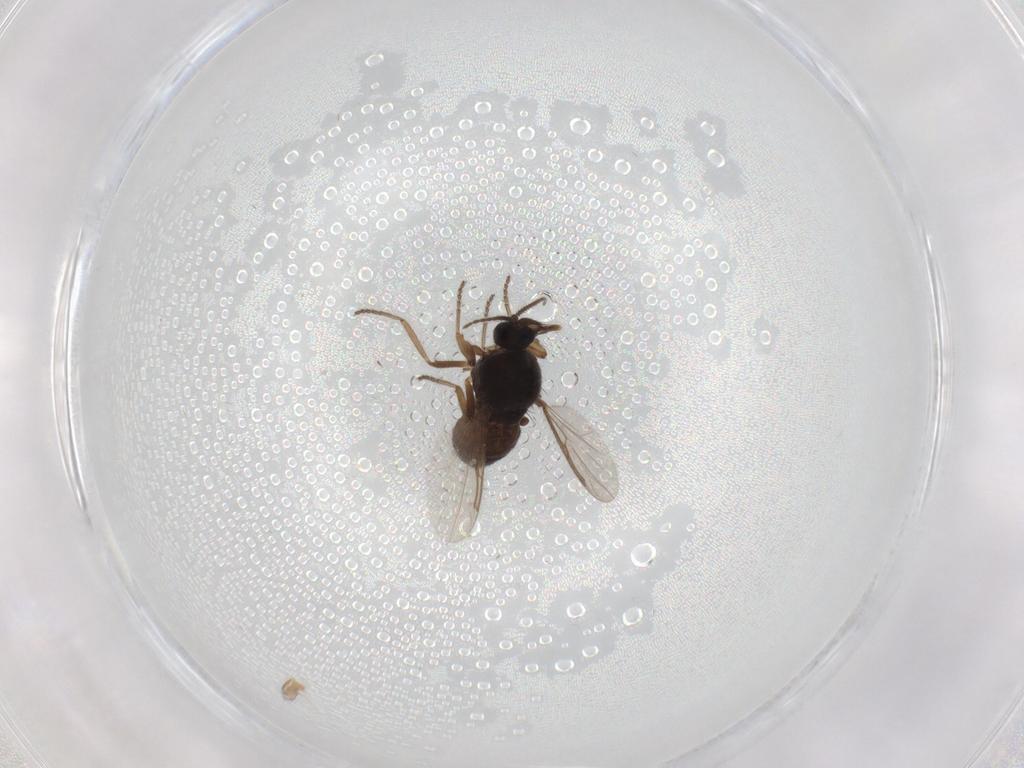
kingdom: Animalia
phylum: Arthropoda
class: Insecta
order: Diptera
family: Ceratopogonidae
